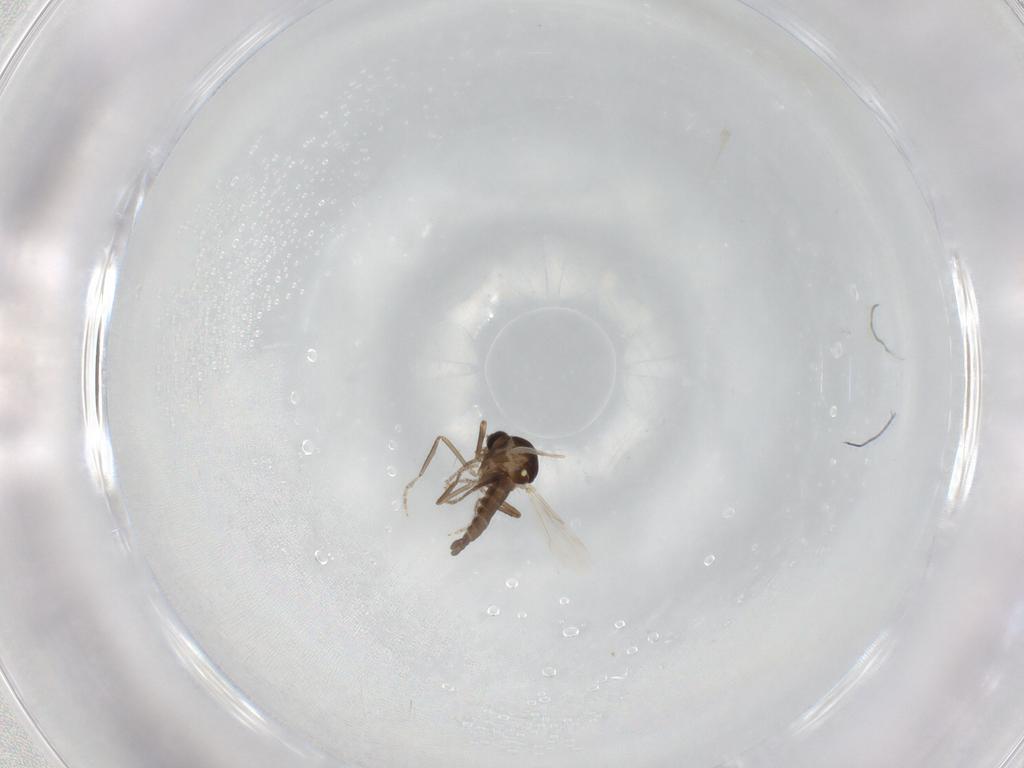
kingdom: Animalia
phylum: Arthropoda
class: Insecta
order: Diptera
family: Ceratopogonidae
